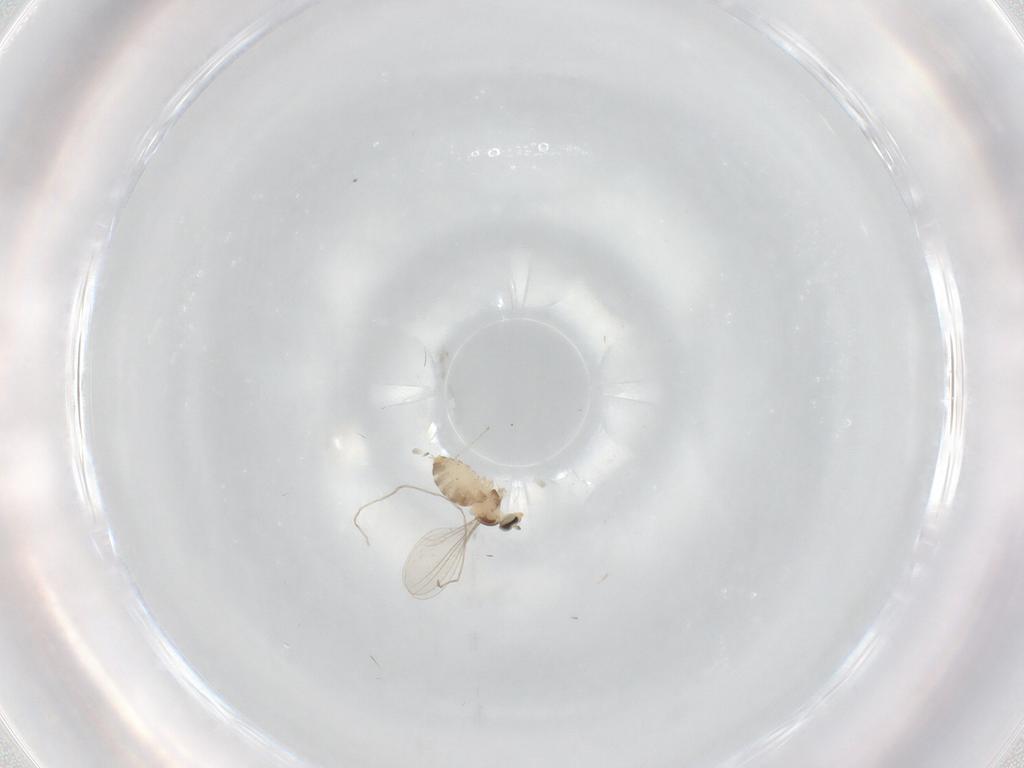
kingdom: Animalia
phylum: Arthropoda
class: Insecta
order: Diptera
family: Cecidomyiidae
